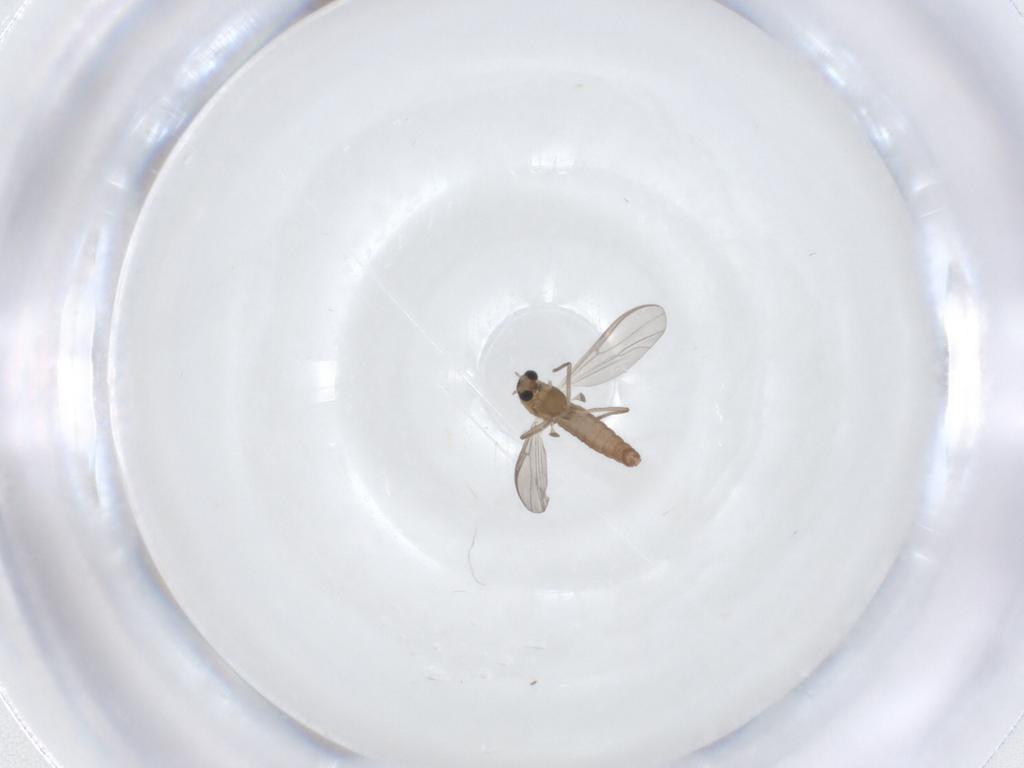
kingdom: Animalia
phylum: Arthropoda
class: Insecta
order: Diptera
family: Chironomidae
